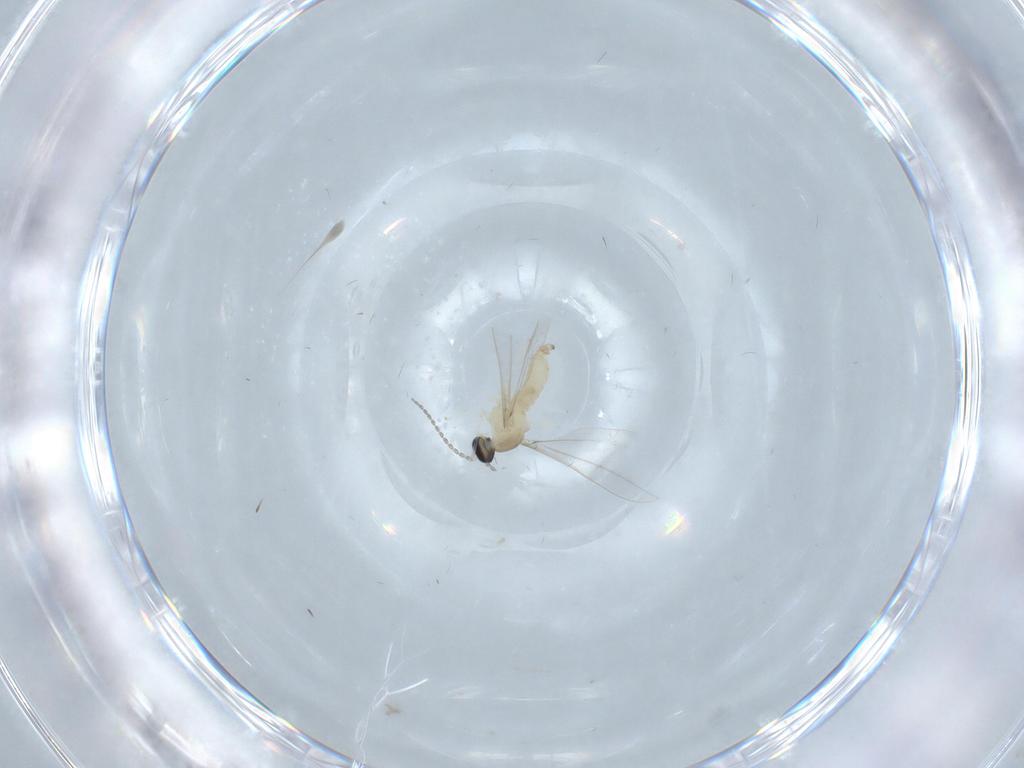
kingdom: Animalia
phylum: Arthropoda
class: Insecta
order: Diptera
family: Cecidomyiidae
